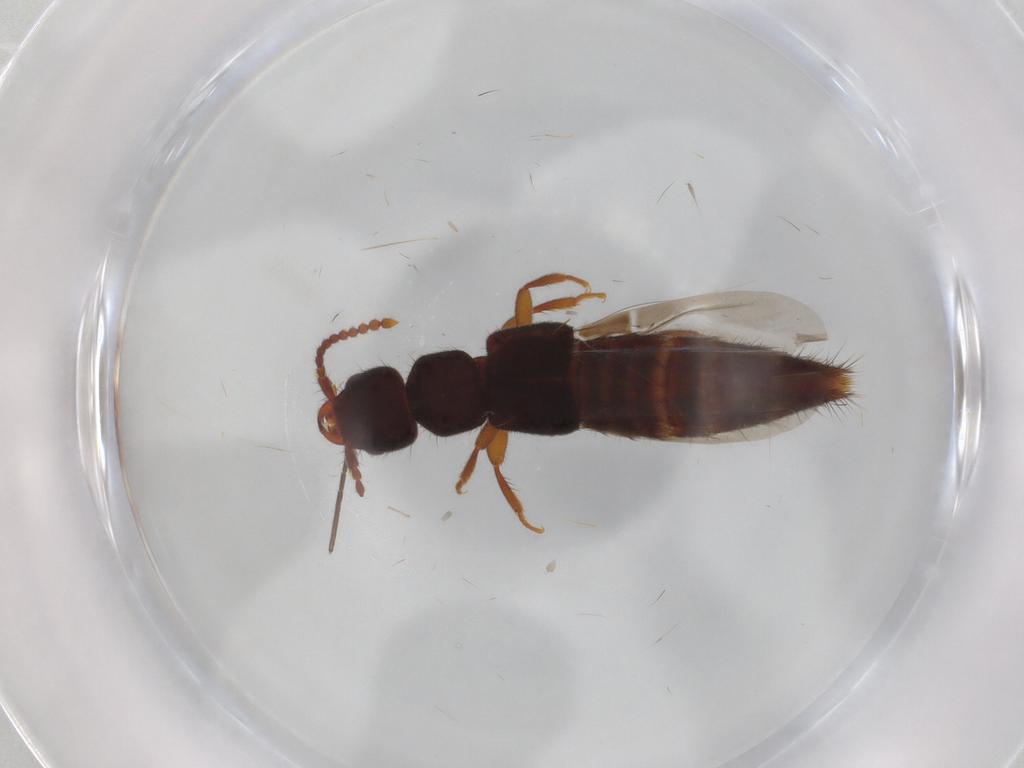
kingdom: Animalia
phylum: Arthropoda
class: Insecta
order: Coleoptera
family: Staphylinidae
